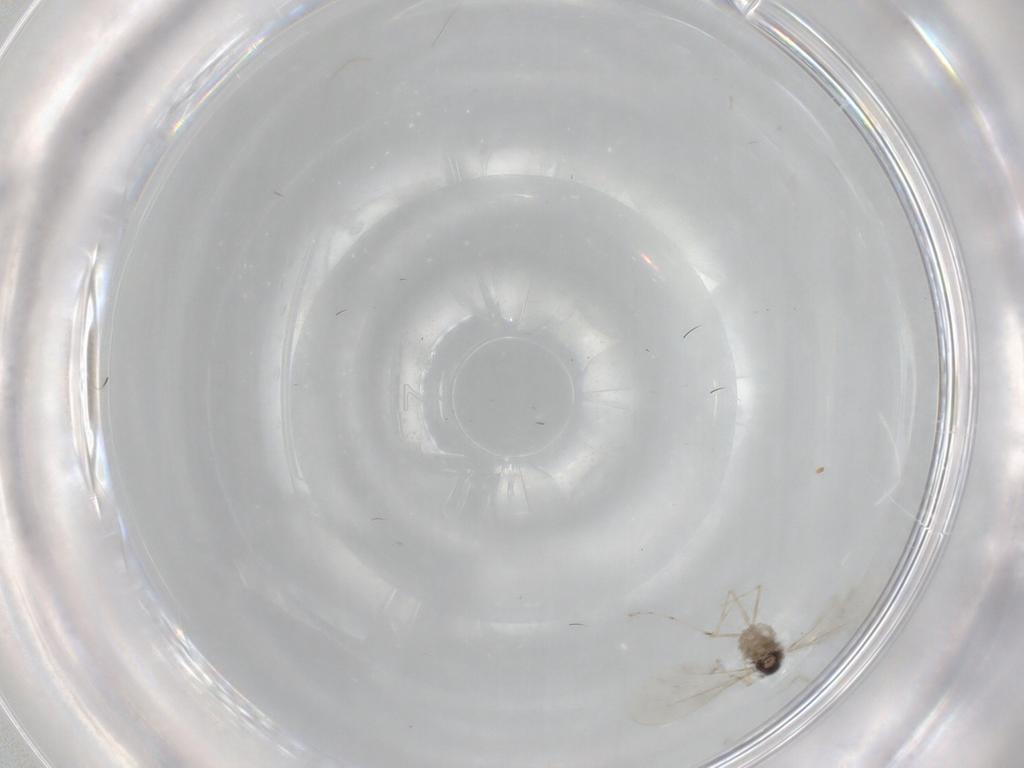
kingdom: Animalia
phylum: Arthropoda
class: Insecta
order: Diptera
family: Cecidomyiidae
